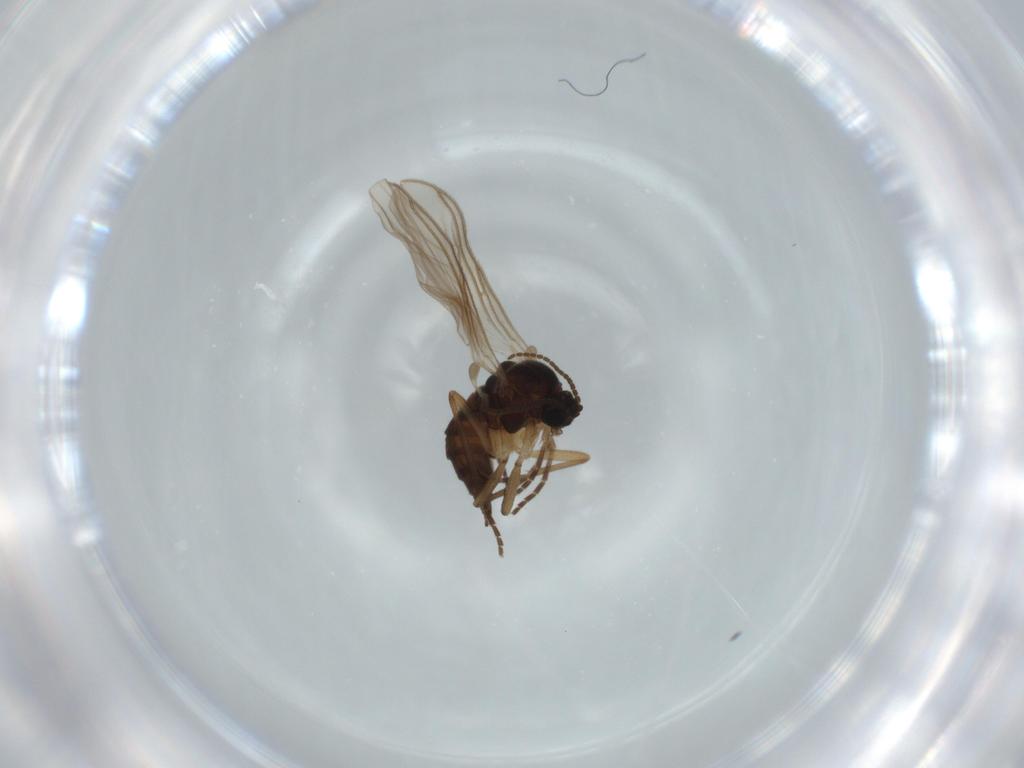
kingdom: Animalia
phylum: Arthropoda
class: Insecta
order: Diptera
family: Sciaridae
